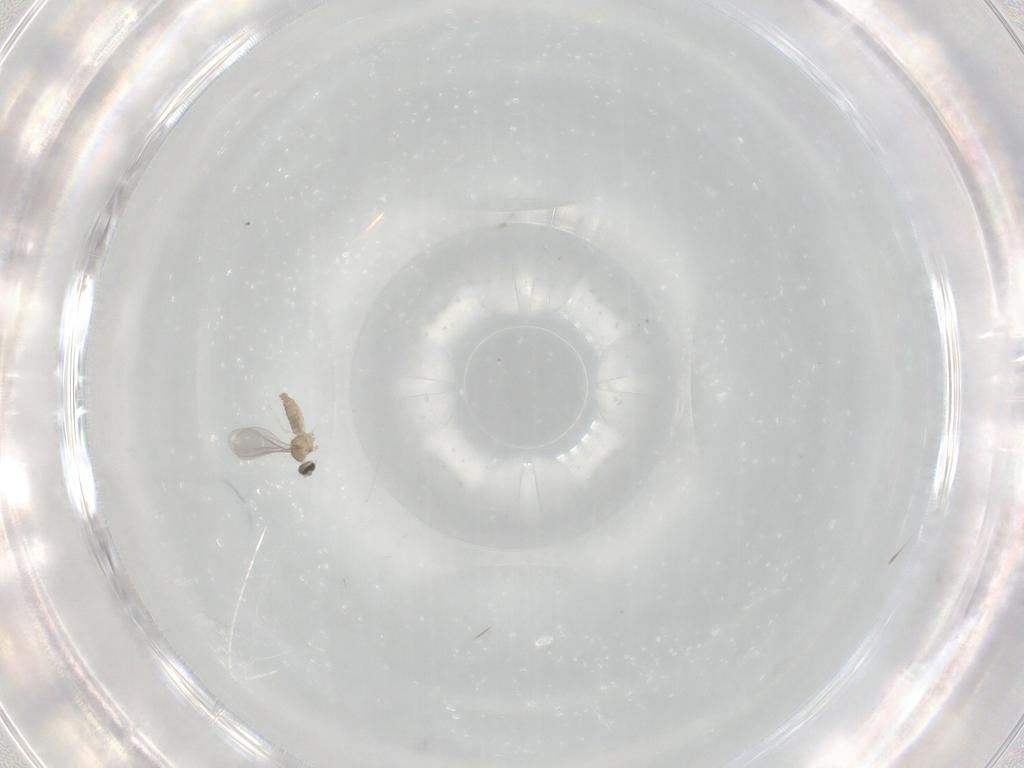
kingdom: Animalia
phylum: Arthropoda
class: Insecta
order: Diptera
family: Cecidomyiidae
